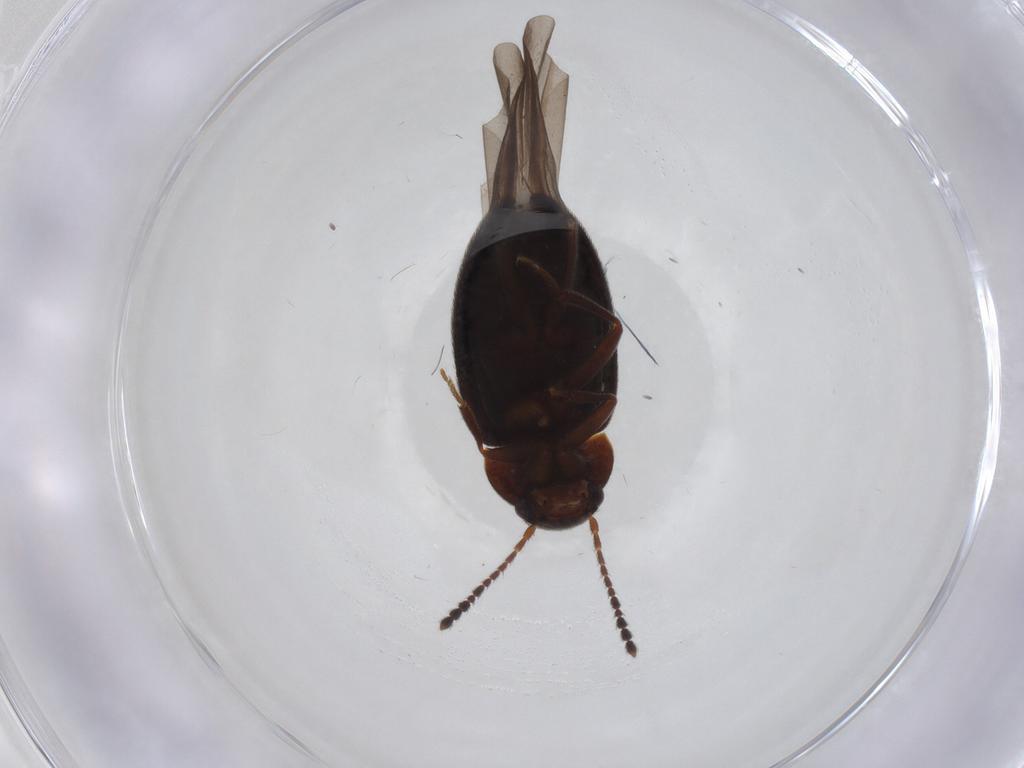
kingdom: Animalia
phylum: Arthropoda
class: Insecta
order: Coleoptera
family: Leiodidae
